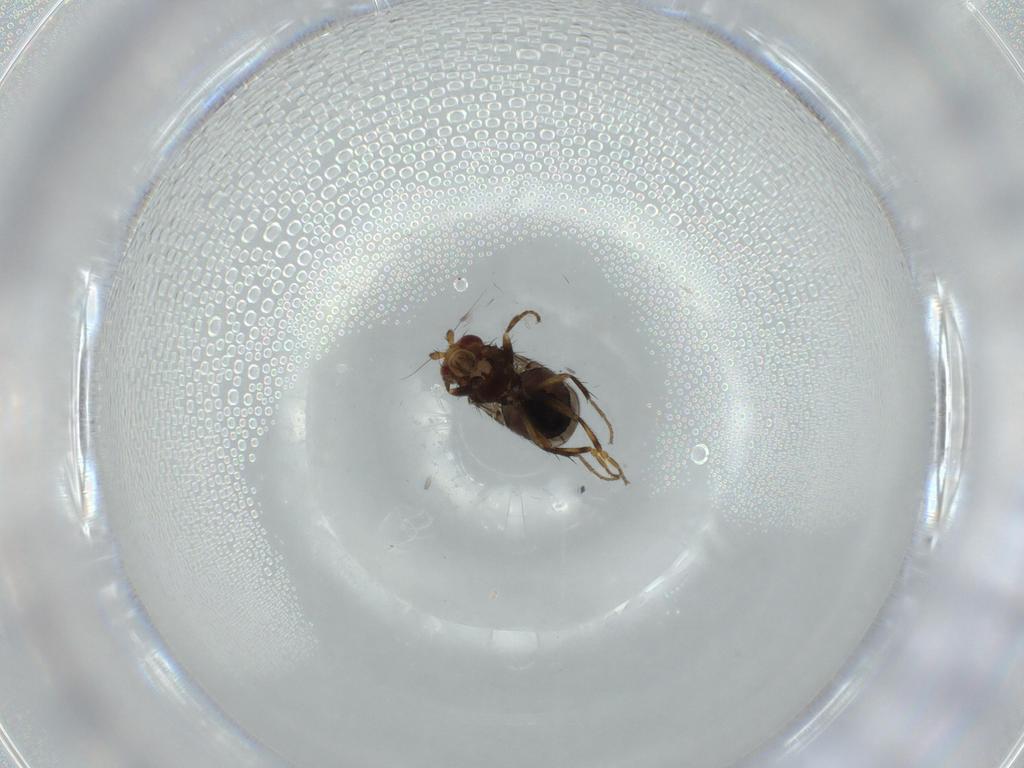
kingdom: Animalia
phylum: Arthropoda
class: Insecta
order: Diptera
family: Sphaeroceridae
